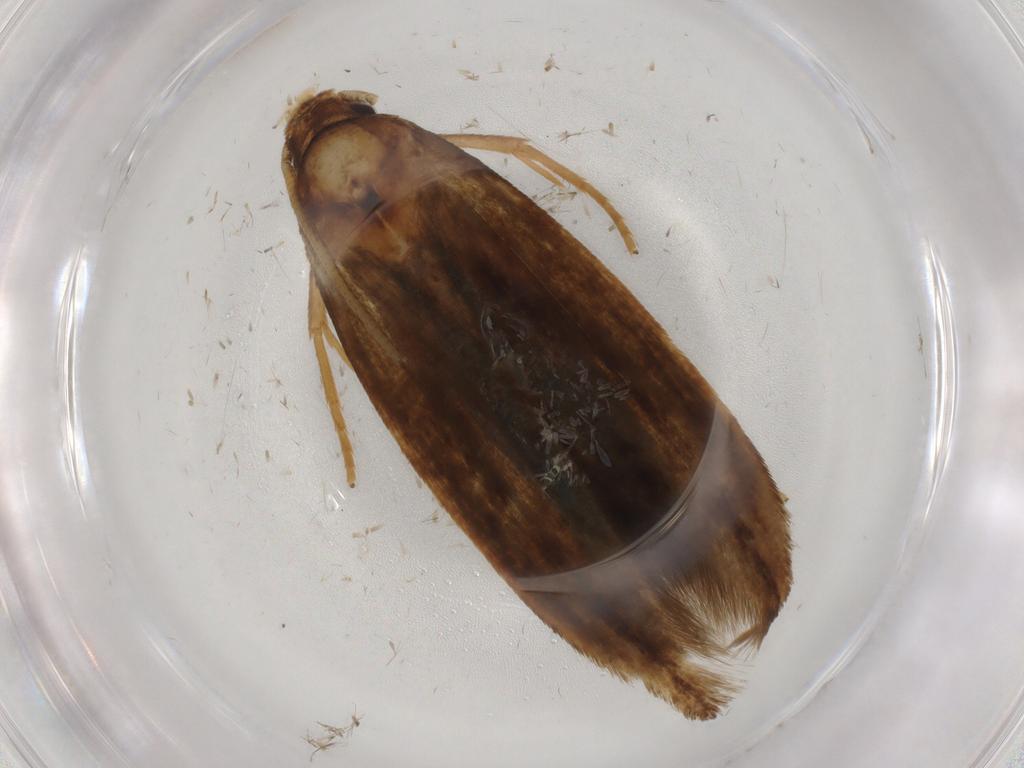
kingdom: Animalia
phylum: Arthropoda
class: Insecta
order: Lepidoptera
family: Tineidae
